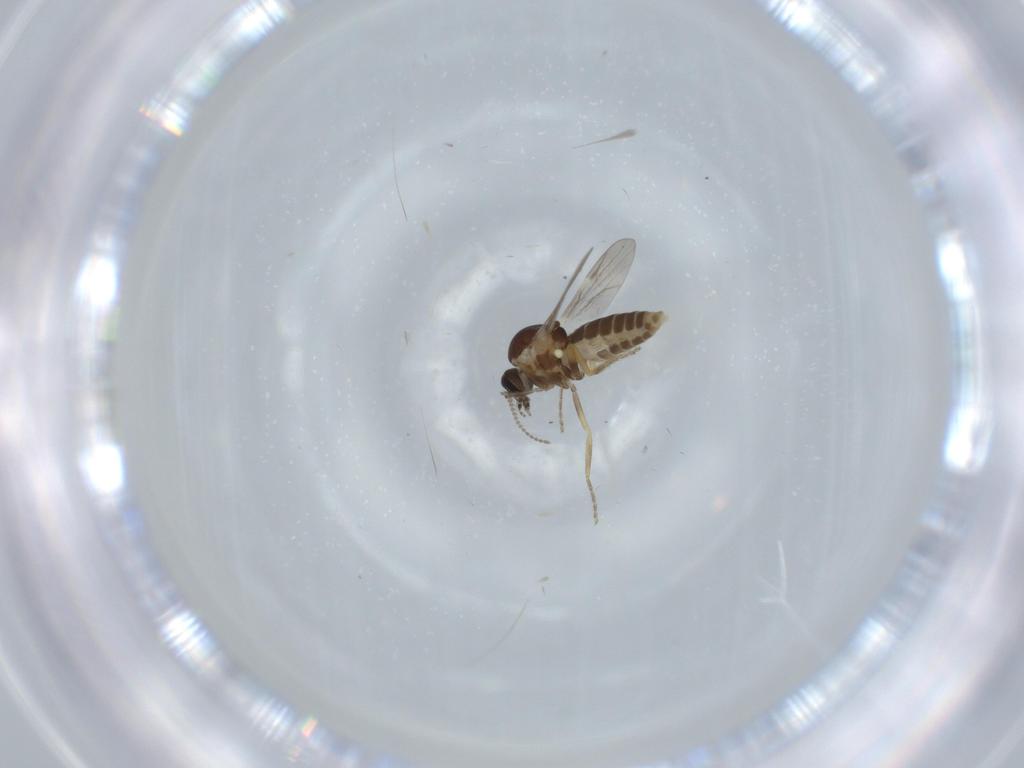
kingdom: Animalia
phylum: Arthropoda
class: Insecta
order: Diptera
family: Ceratopogonidae
